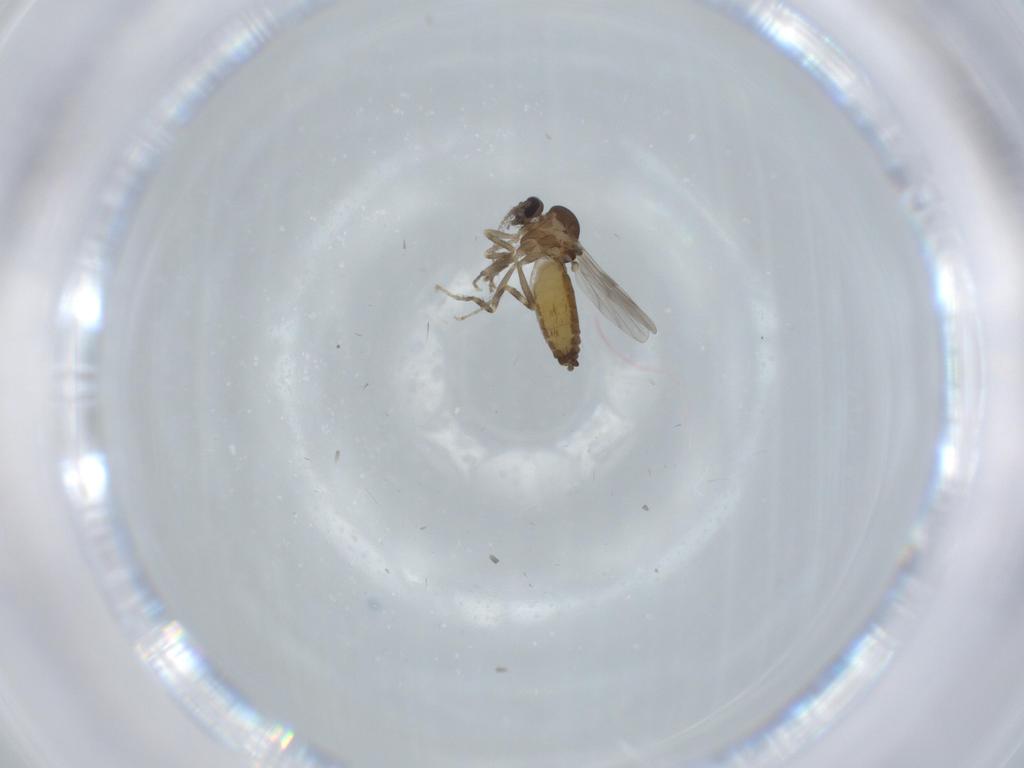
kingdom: Animalia
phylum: Arthropoda
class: Insecta
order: Diptera
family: Ceratopogonidae
